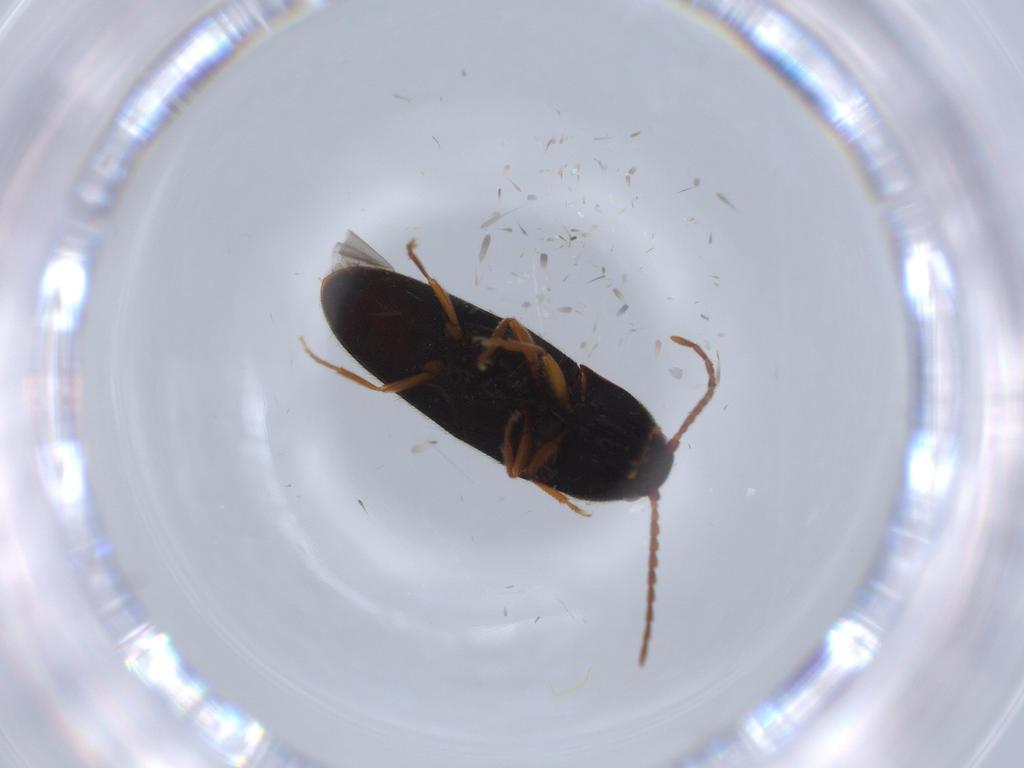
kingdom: Animalia
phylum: Arthropoda
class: Insecta
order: Coleoptera
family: Elateridae
